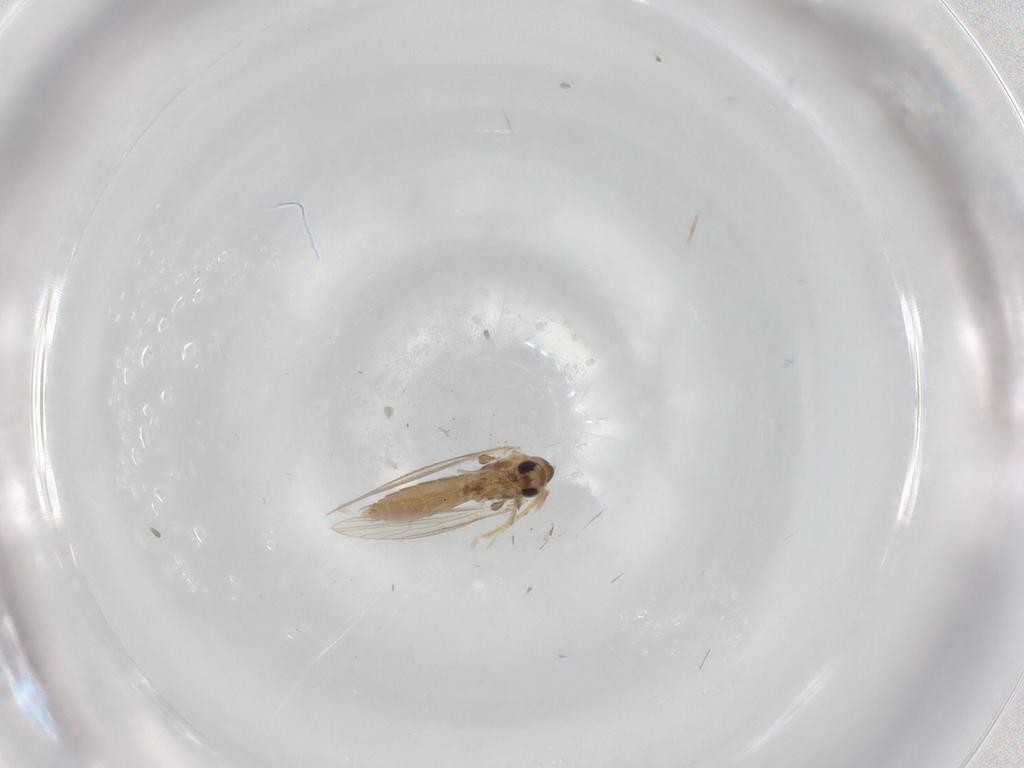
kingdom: Animalia
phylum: Arthropoda
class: Insecta
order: Diptera
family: Psychodidae
